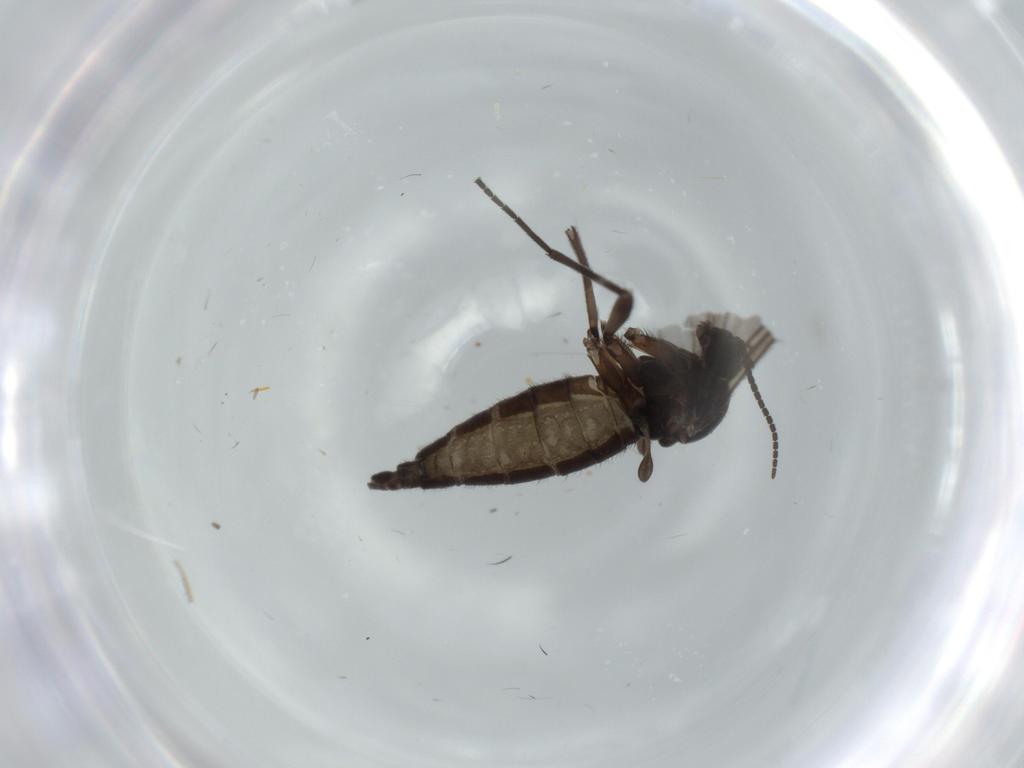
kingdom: Animalia
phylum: Arthropoda
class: Insecta
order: Diptera
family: Sciaridae
